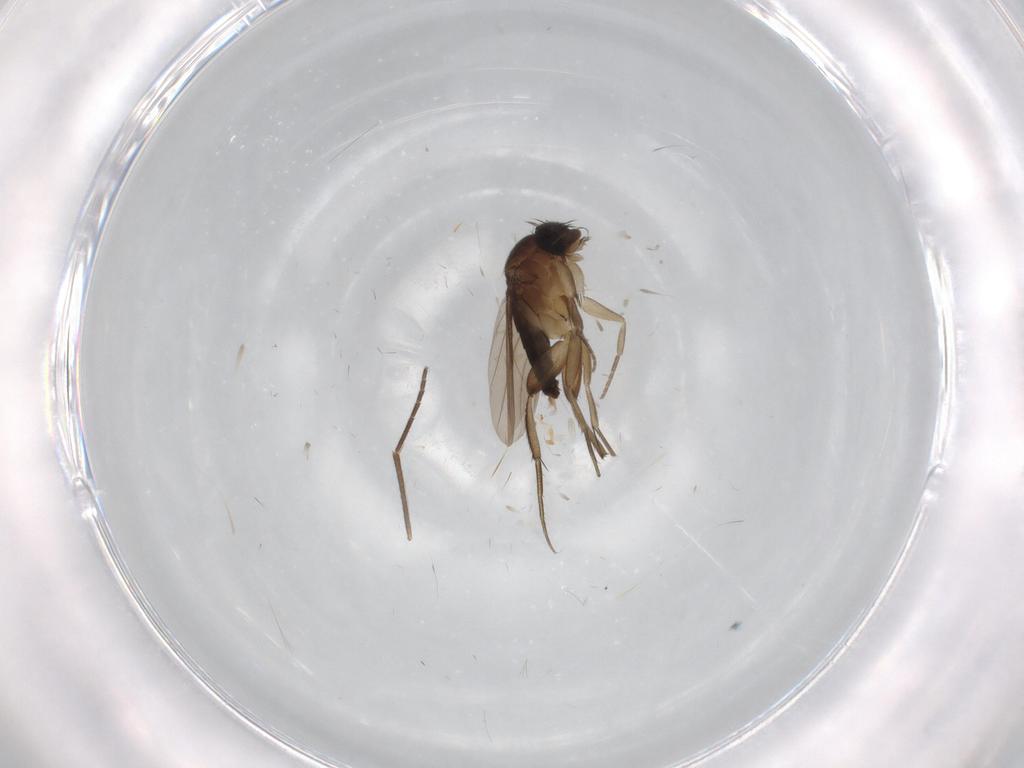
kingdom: Animalia
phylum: Arthropoda
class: Insecta
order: Diptera
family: Phoridae
